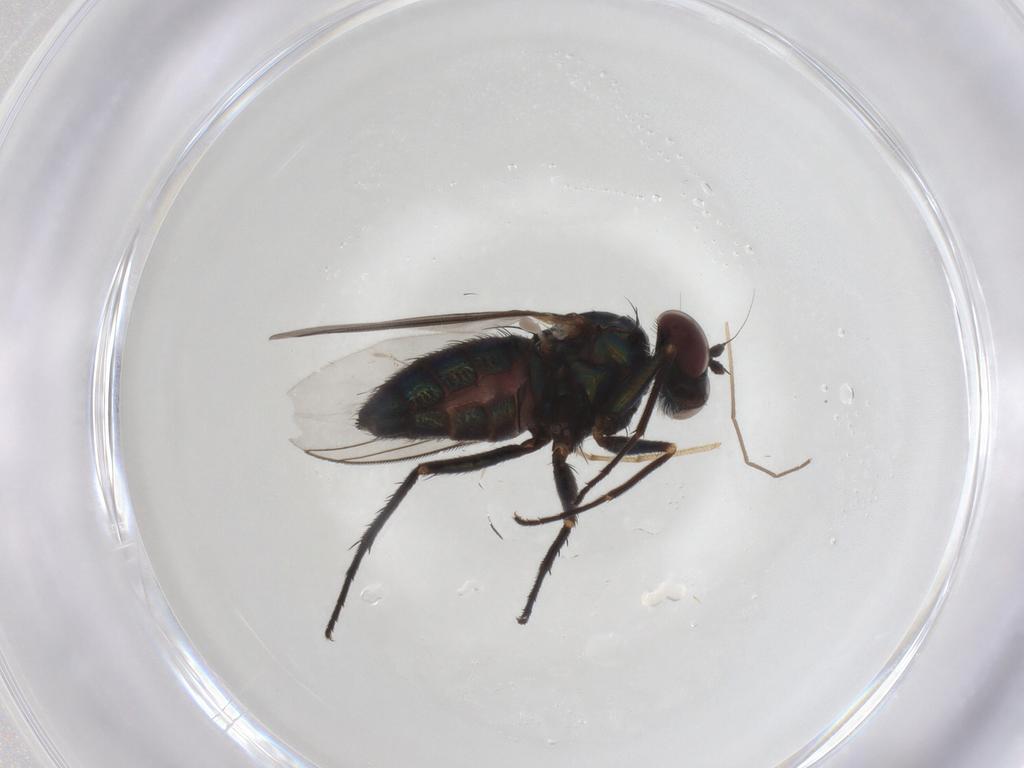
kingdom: Animalia
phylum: Arthropoda
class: Insecta
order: Diptera
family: Dolichopodidae
